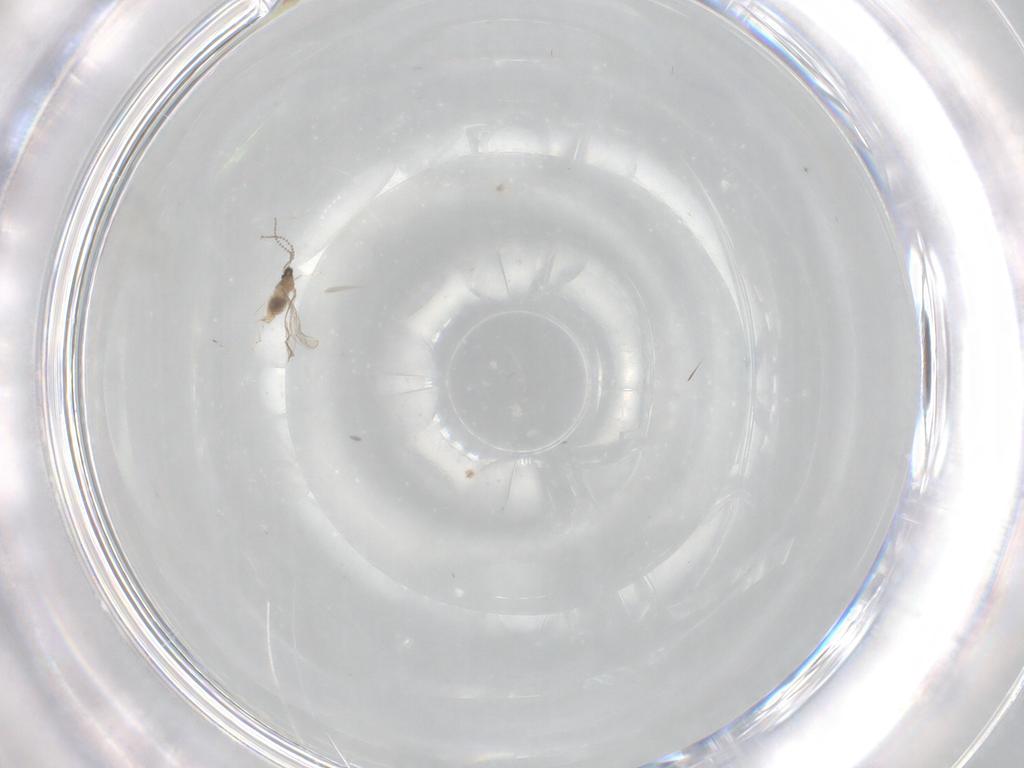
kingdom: Animalia
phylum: Arthropoda
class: Insecta
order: Diptera
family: Cecidomyiidae
